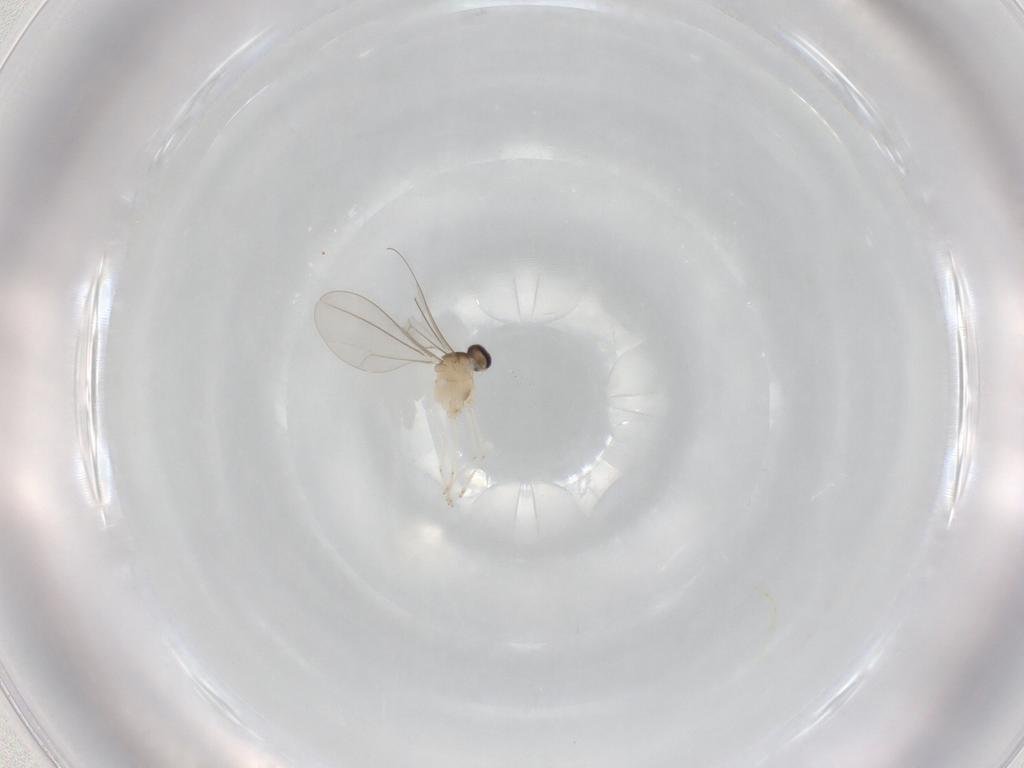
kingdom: Animalia
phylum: Arthropoda
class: Insecta
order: Diptera
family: Cecidomyiidae
